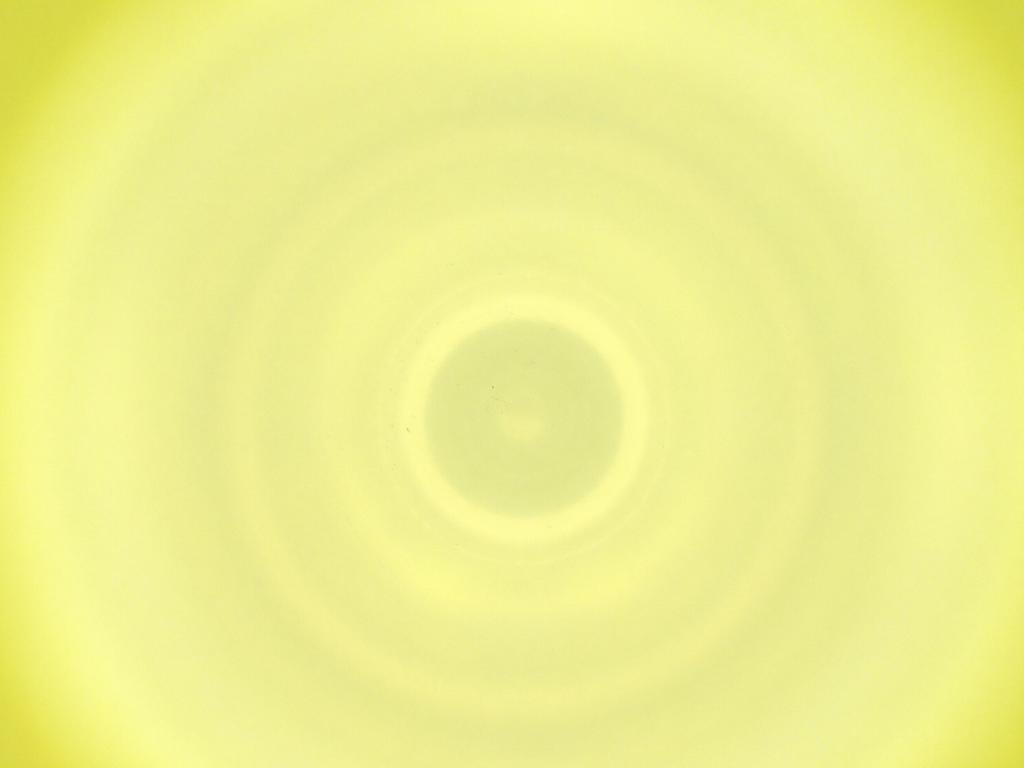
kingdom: Animalia
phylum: Arthropoda
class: Insecta
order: Diptera
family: Cecidomyiidae
